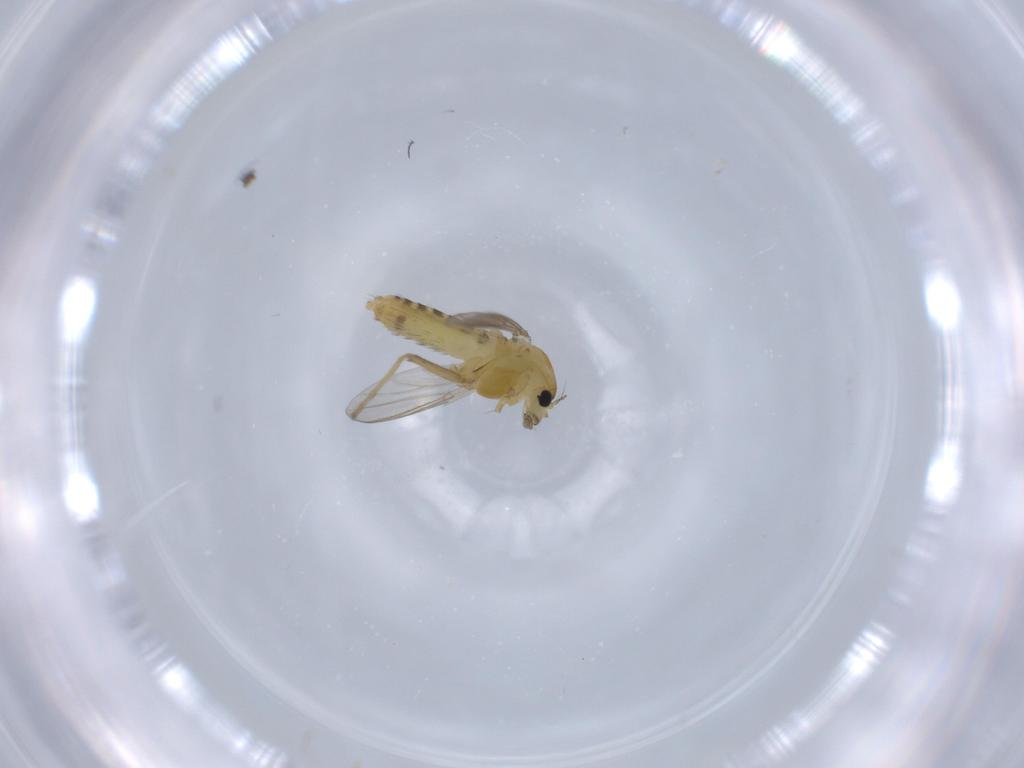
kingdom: Animalia
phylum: Arthropoda
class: Insecta
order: Diptera
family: Chironomidae
